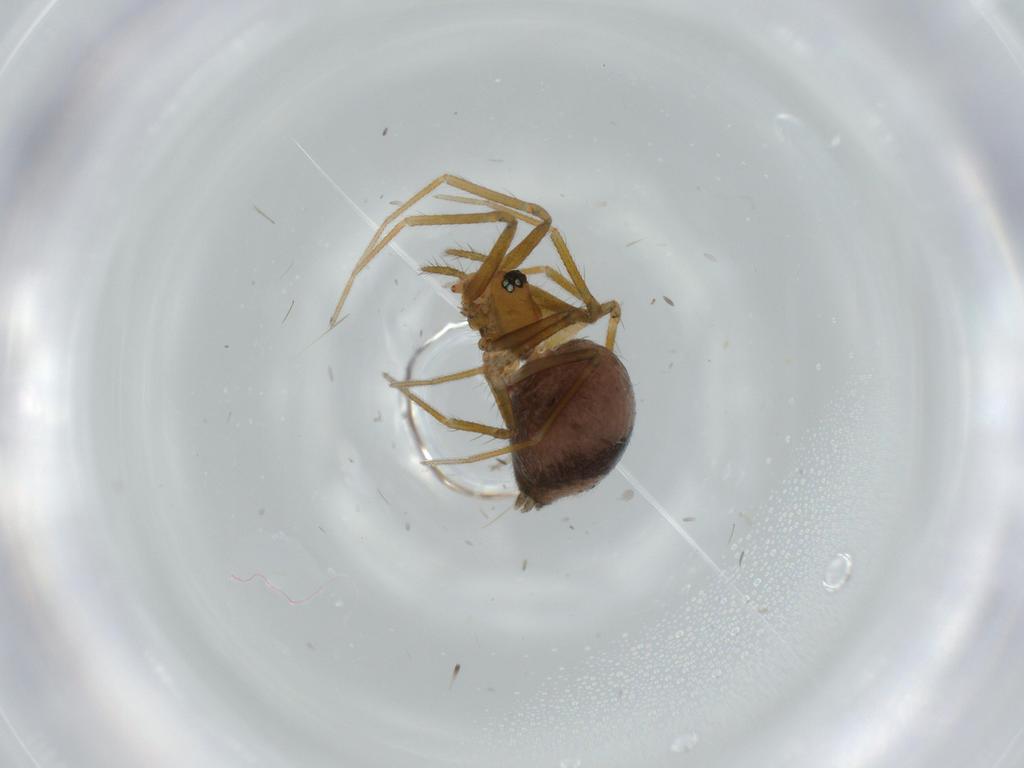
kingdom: Animalia
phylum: Arthropoda
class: Arachnida
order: Araneae
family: Linyphiidae
